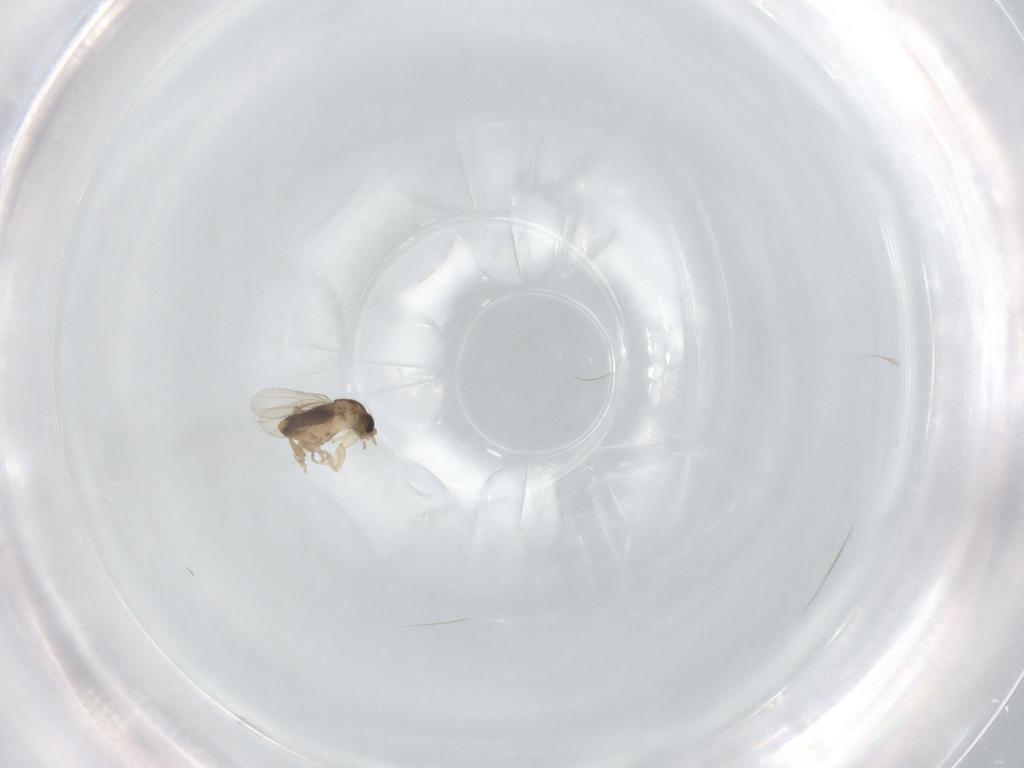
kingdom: Animalia
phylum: Arthropoda
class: Insecta
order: Diptera
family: Phoridae
